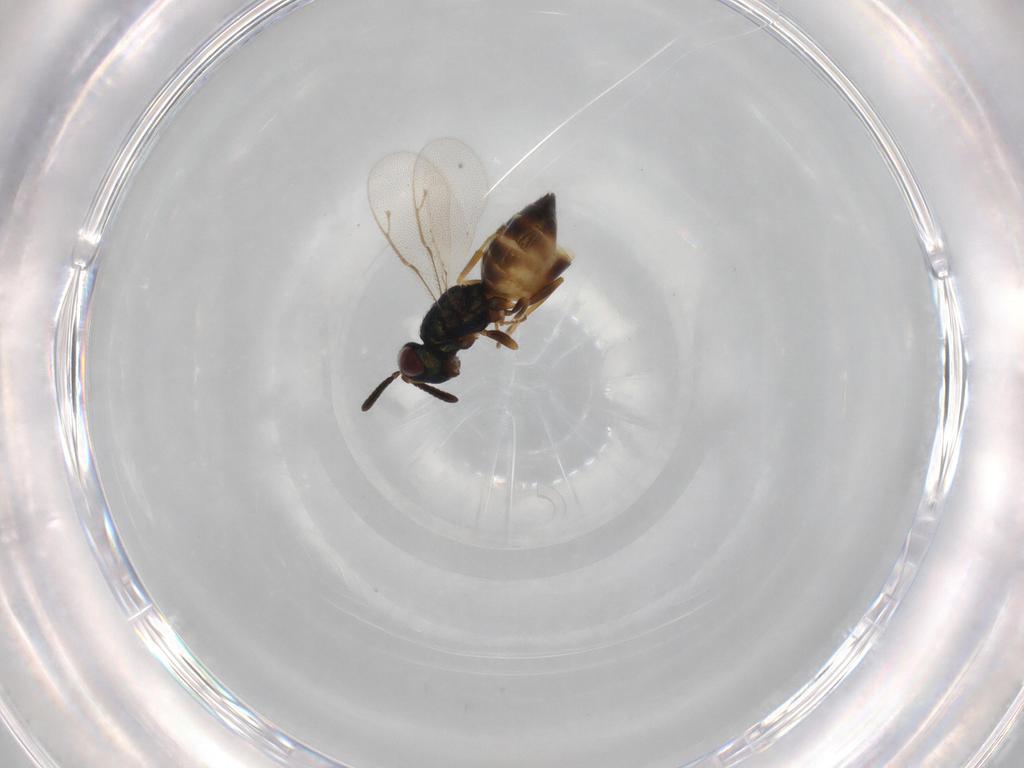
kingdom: Animalia
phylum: Arthropoda
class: Insecta
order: Hymenoptera
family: Pteromalidae
